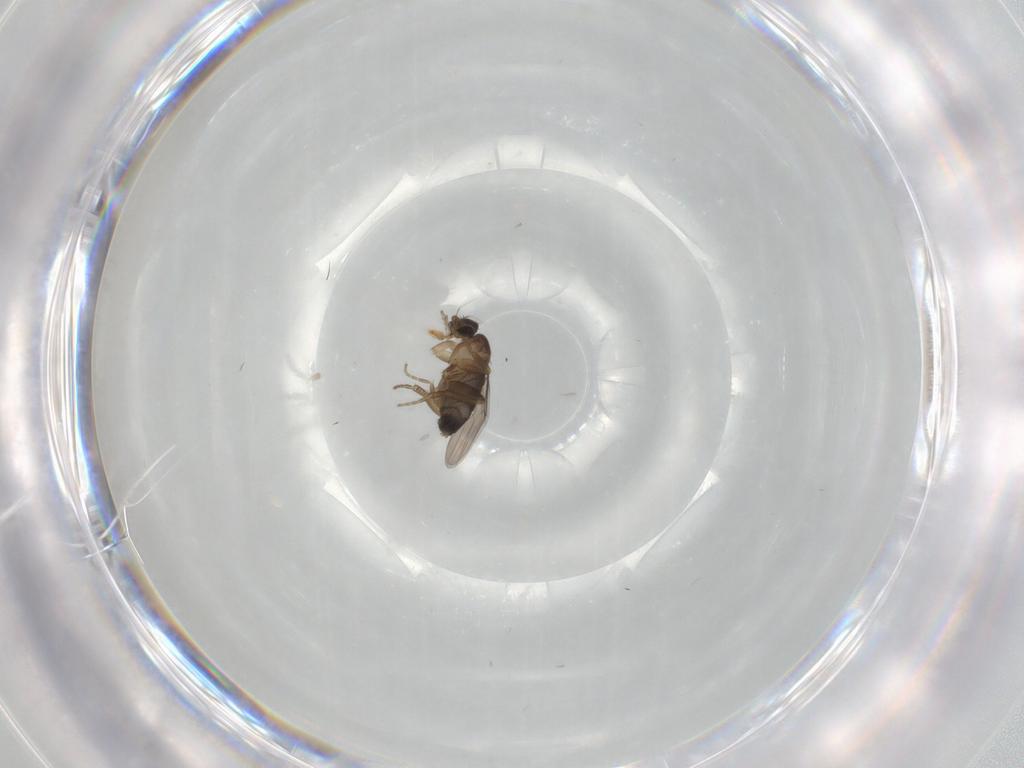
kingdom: Animalia
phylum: Arthropoda
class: Insecta
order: Diptera
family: Phoridae
